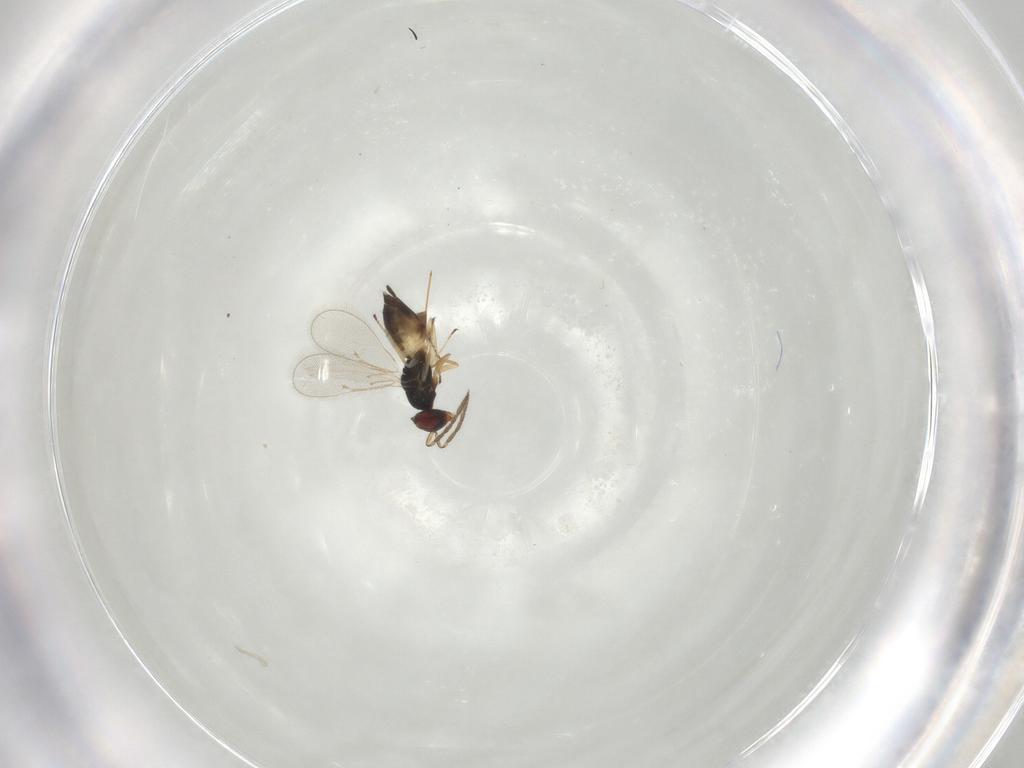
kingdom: Animalia
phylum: Arthropoda
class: Insecta
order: Hymenoptera
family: Eulophidae
